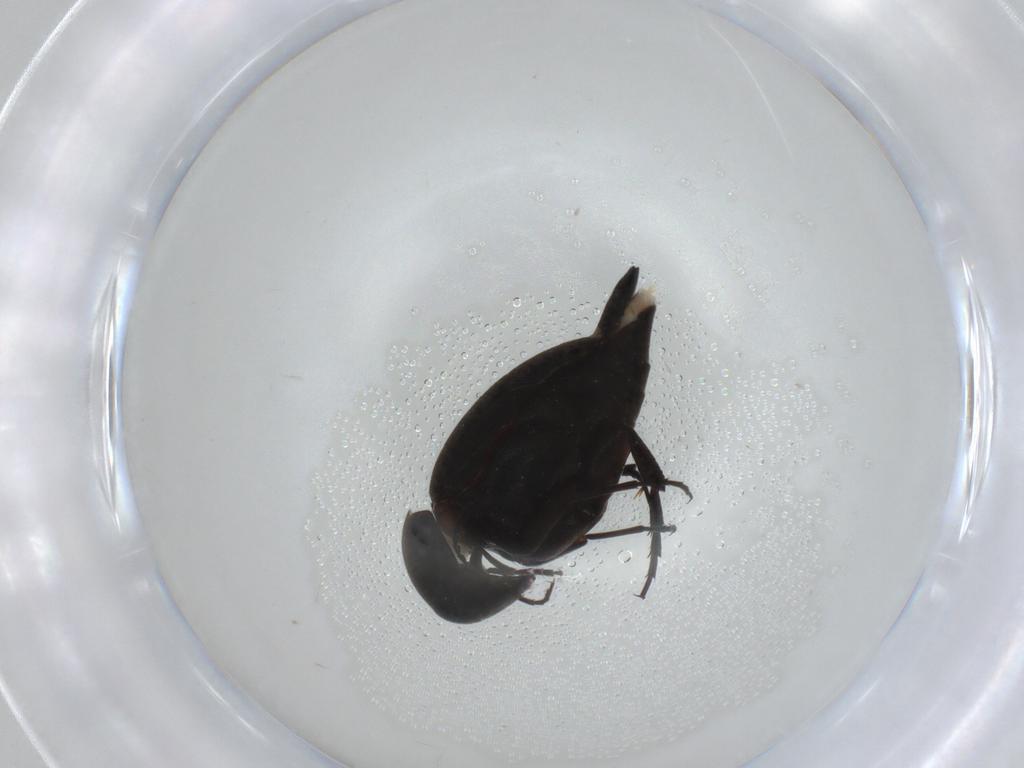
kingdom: Animalia
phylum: Arthropoda
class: Insecta
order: Coleoptera
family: Mordellidae
